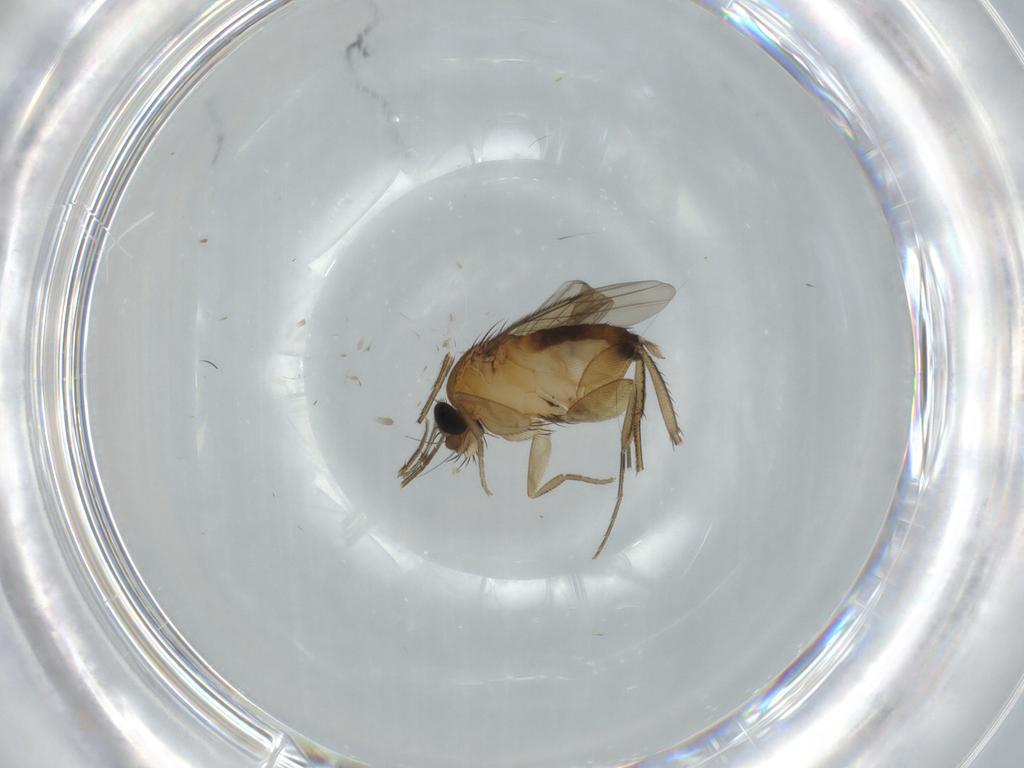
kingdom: Animalia
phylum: Arthropoda
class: Insecta
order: Diptera
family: Phoridae
